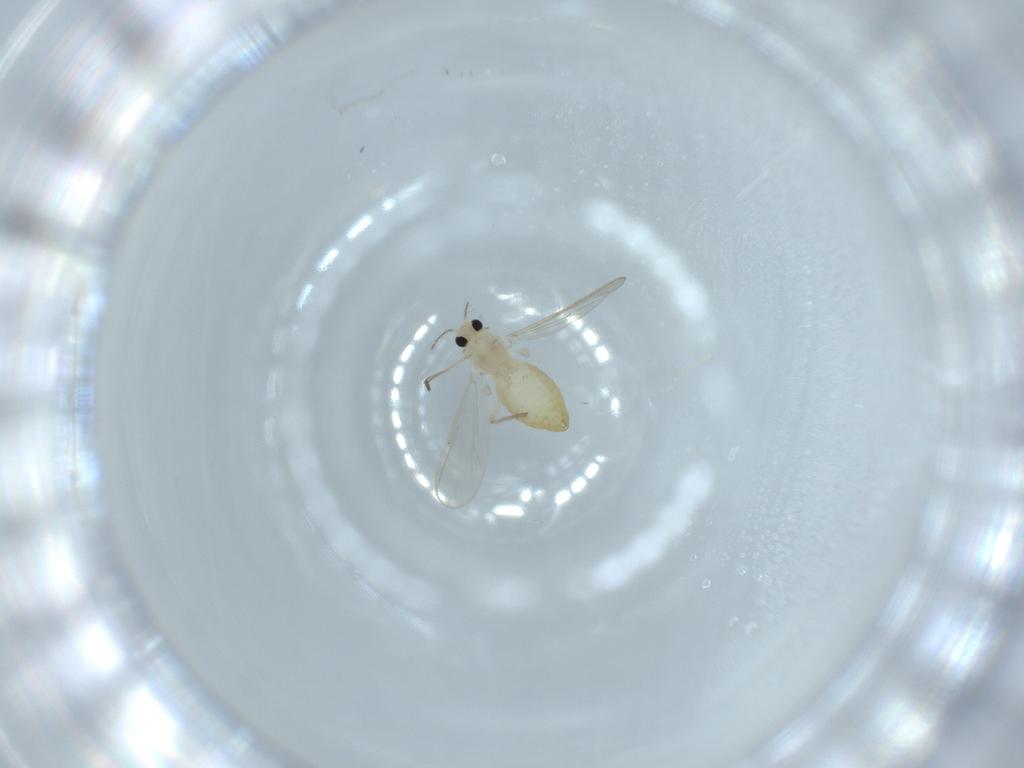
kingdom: Animalia
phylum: Arthropoda
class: Insecta
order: Diptera
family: Chironomidae
